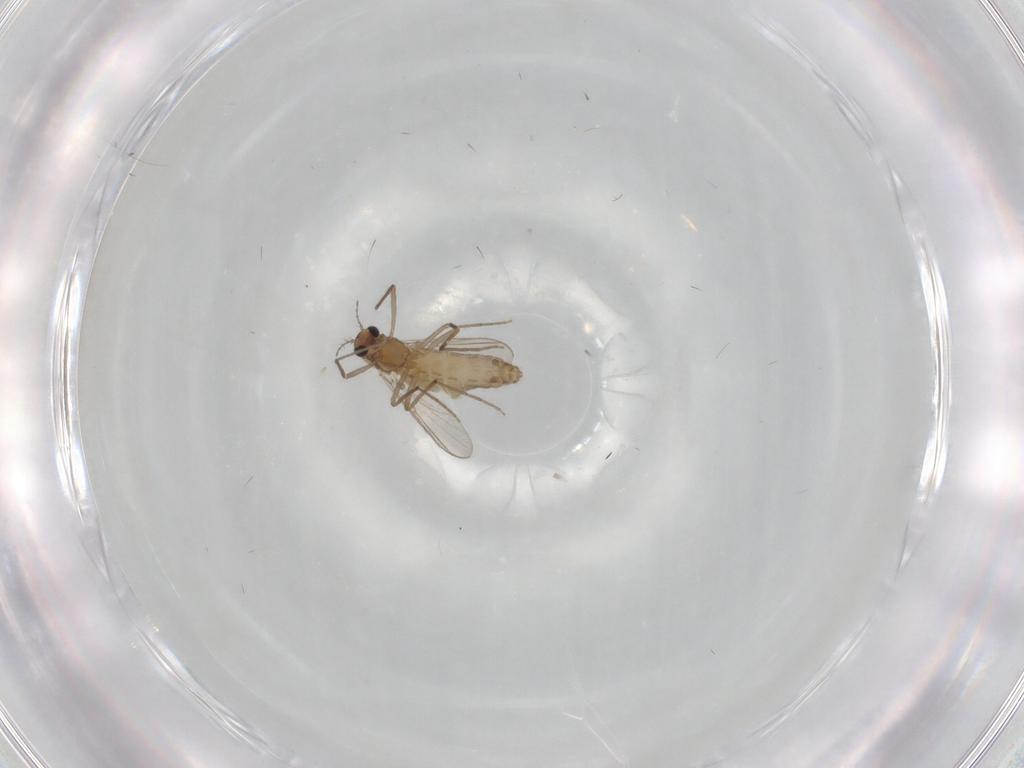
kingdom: Animalia
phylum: Arthropoda
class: Insecta
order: Diptera
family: Chironomidae
